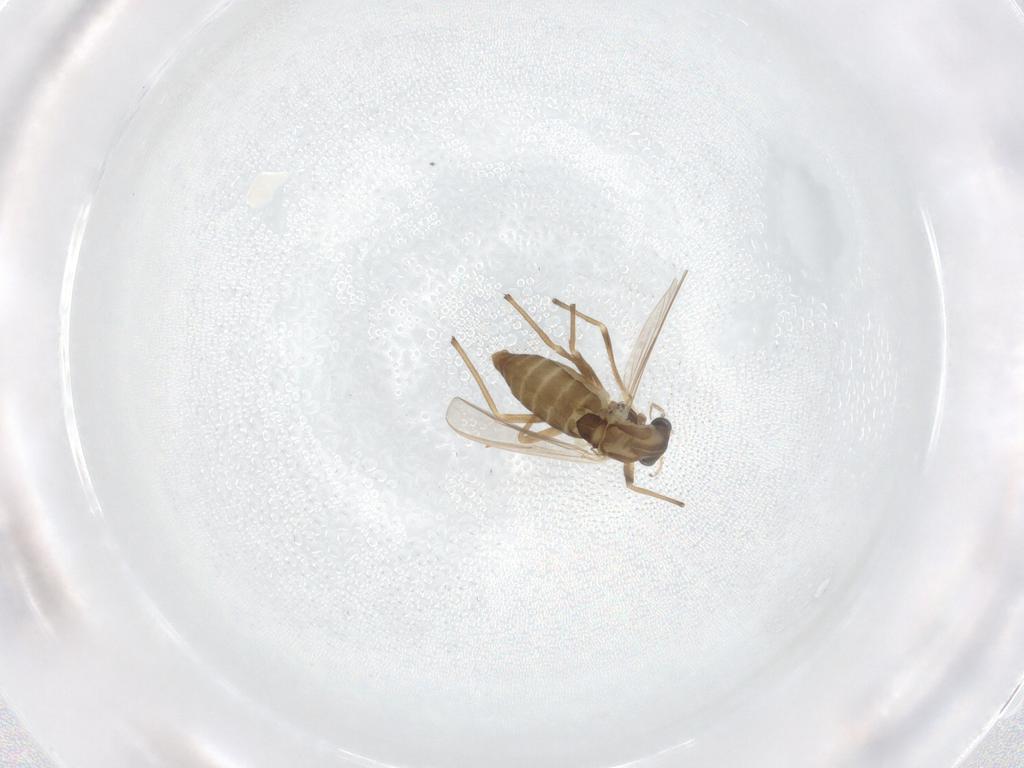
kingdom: Animalia
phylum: Arthropoda
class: Insecta
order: Diptera
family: Chironomidae
